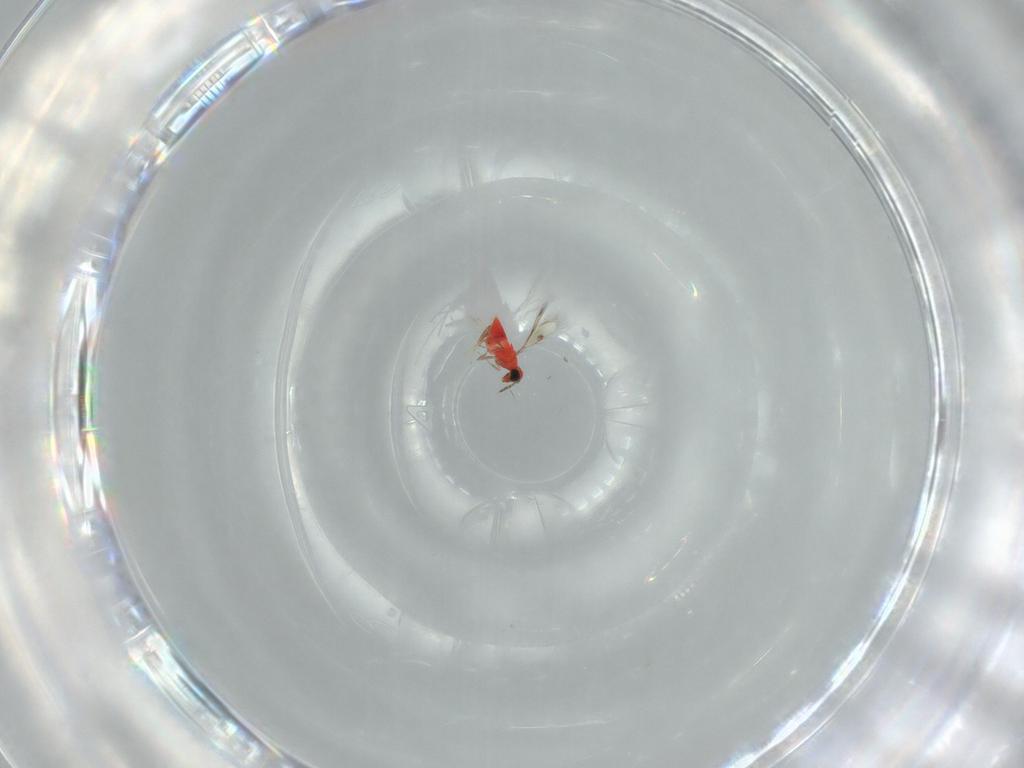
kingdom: Animalia
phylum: Arthropoda
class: Insecta
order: Hymenoptera
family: Trichogrammatidae
